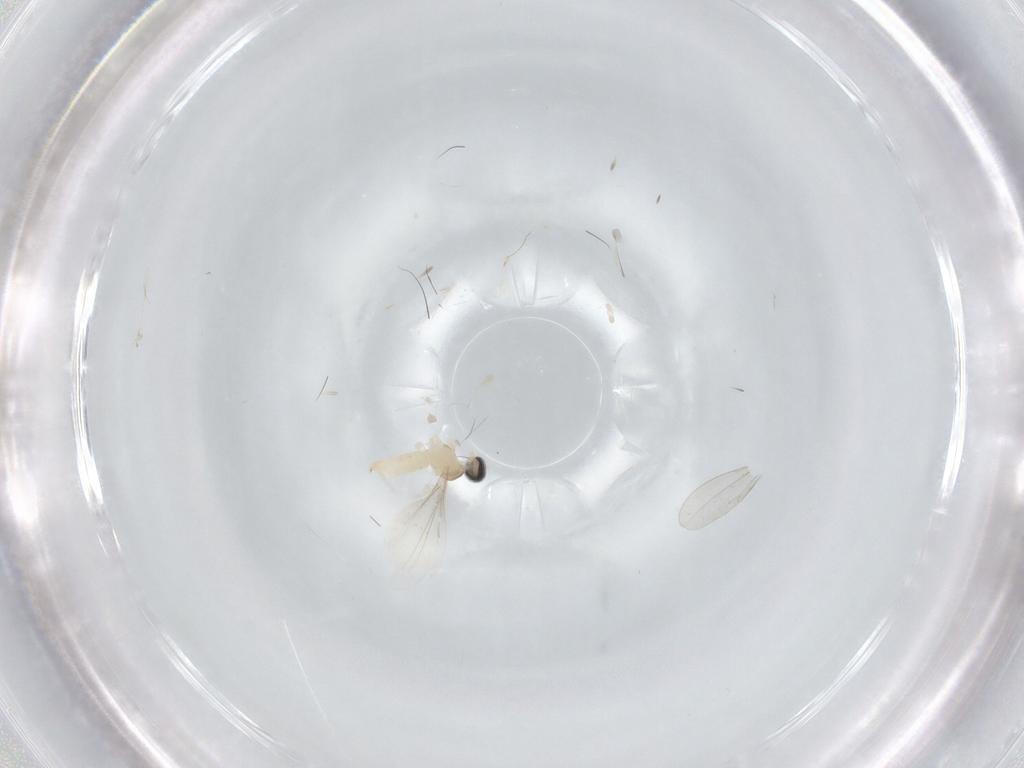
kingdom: Animalia
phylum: Arthropoda
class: Insecta
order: Diptera
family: Cecidomyiidae
